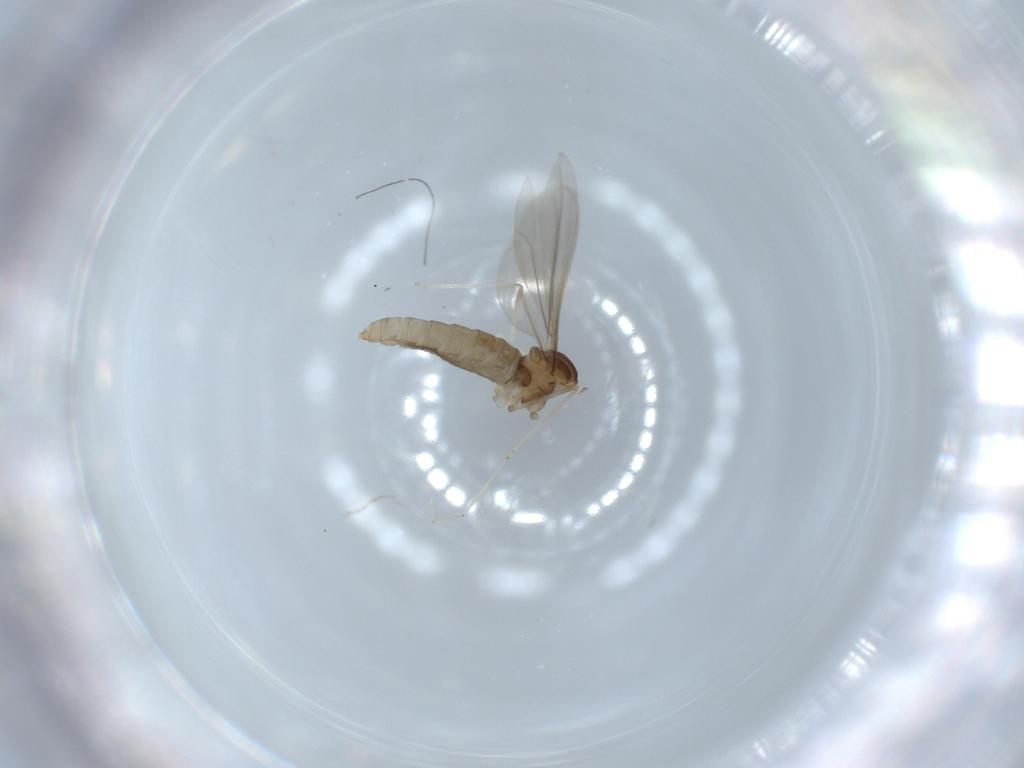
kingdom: Animalia
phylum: Arthropoda
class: Insecta
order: Diptera
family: Cecidomyiidae
